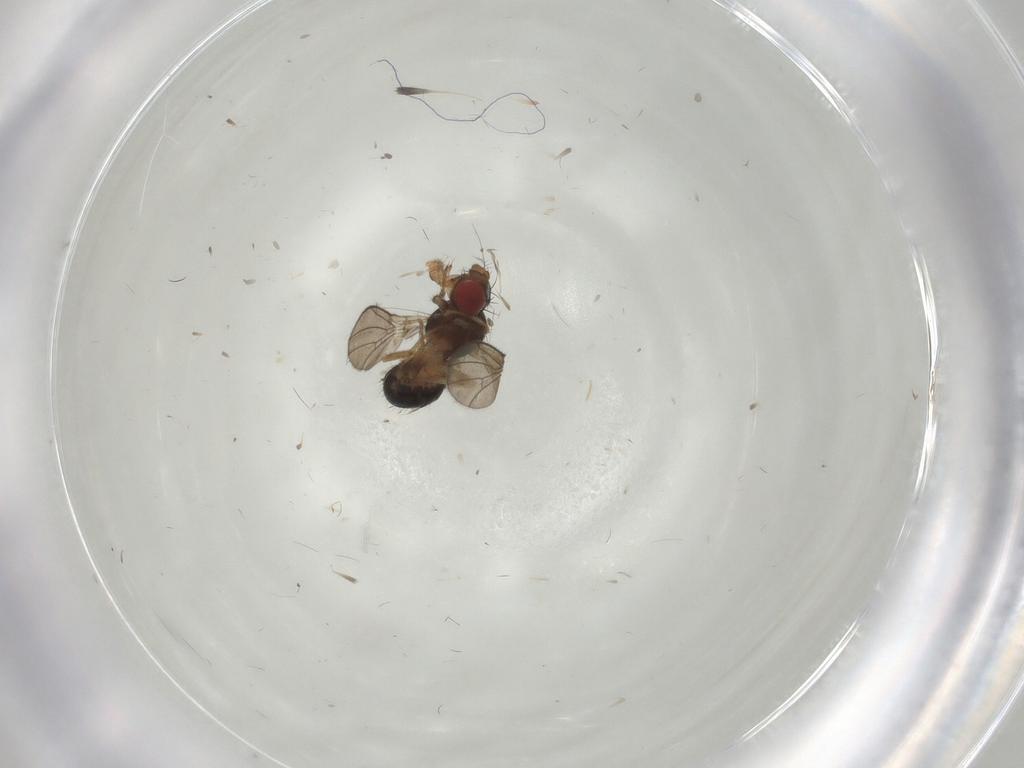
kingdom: Animalia
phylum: Arthropoda
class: Insecta
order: Diptera
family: Drosophilidae
